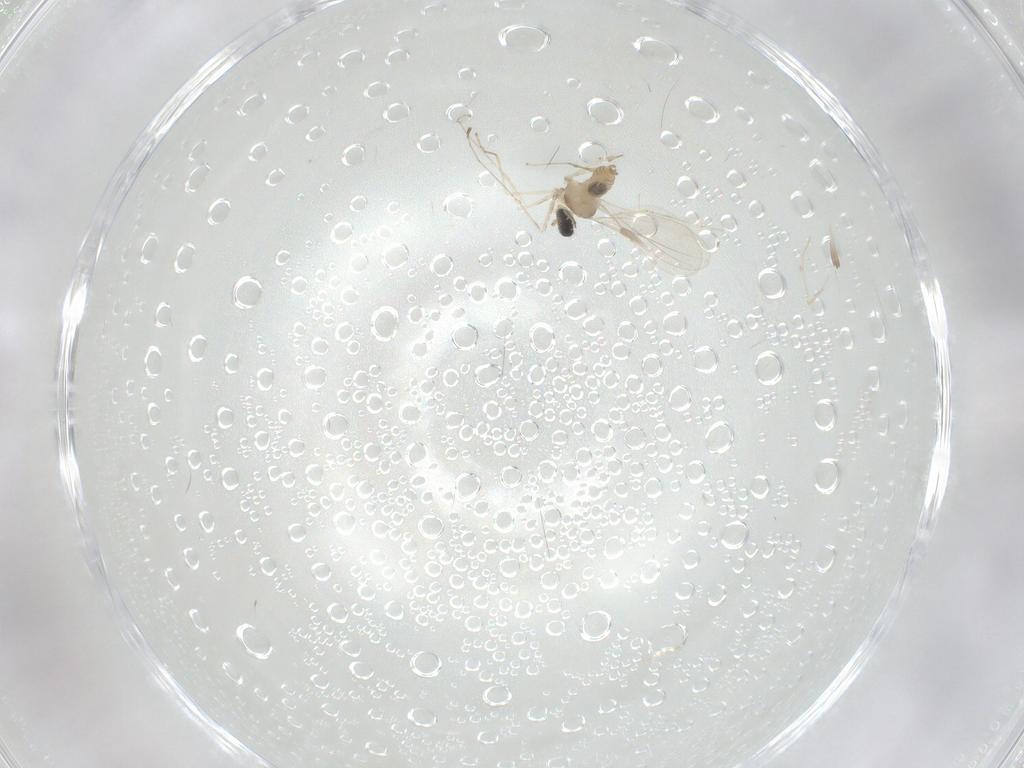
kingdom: Animalia
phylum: Arthropoda
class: Insecta
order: Diptera
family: Cecidomyiidae
